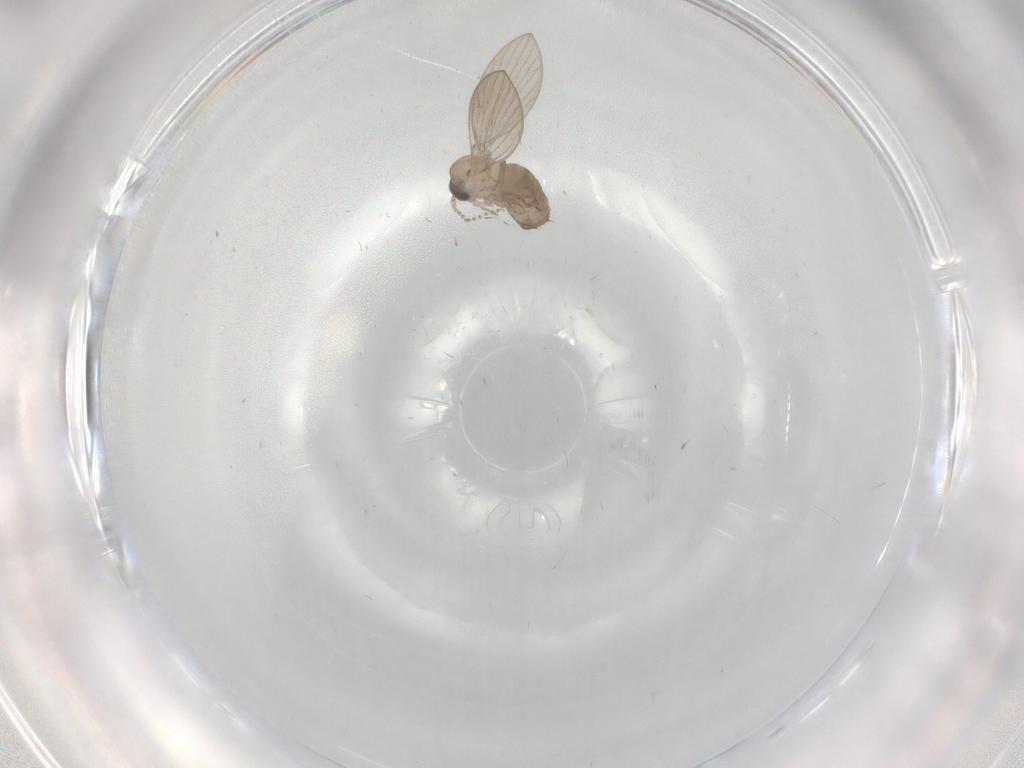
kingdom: Animalia
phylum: Arthropoda
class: Insecta
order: Diptera
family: Psychodidae
